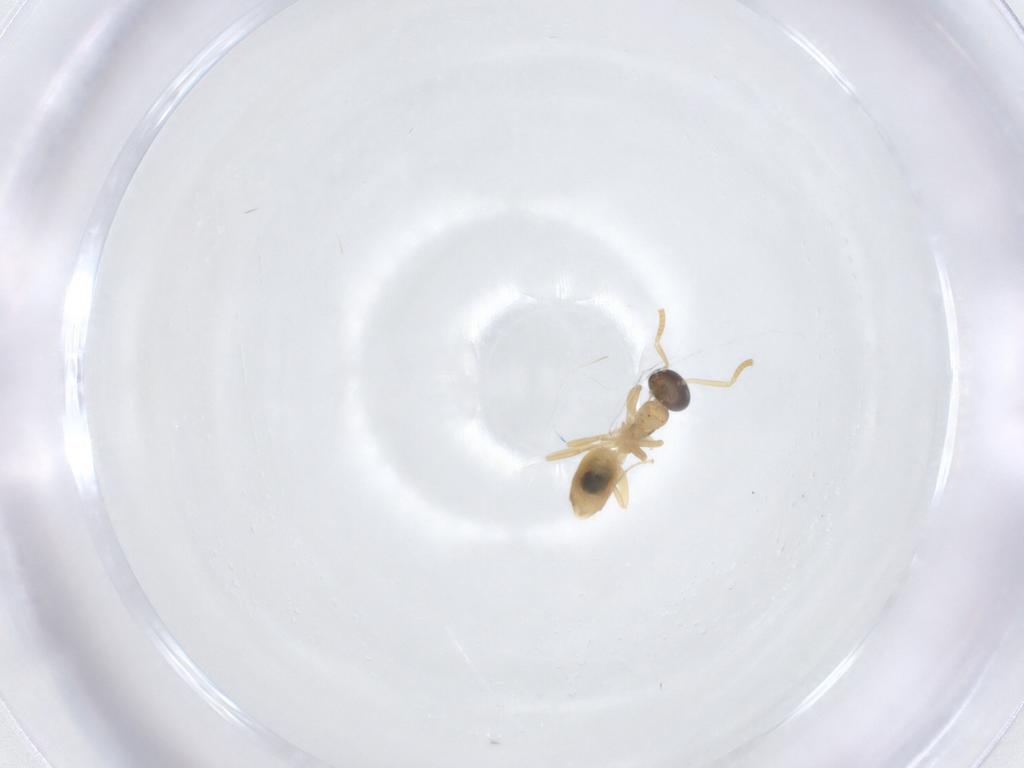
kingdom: Animalia
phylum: Arthropoda
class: Insecta
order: Hymenoptera
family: Formicidae
